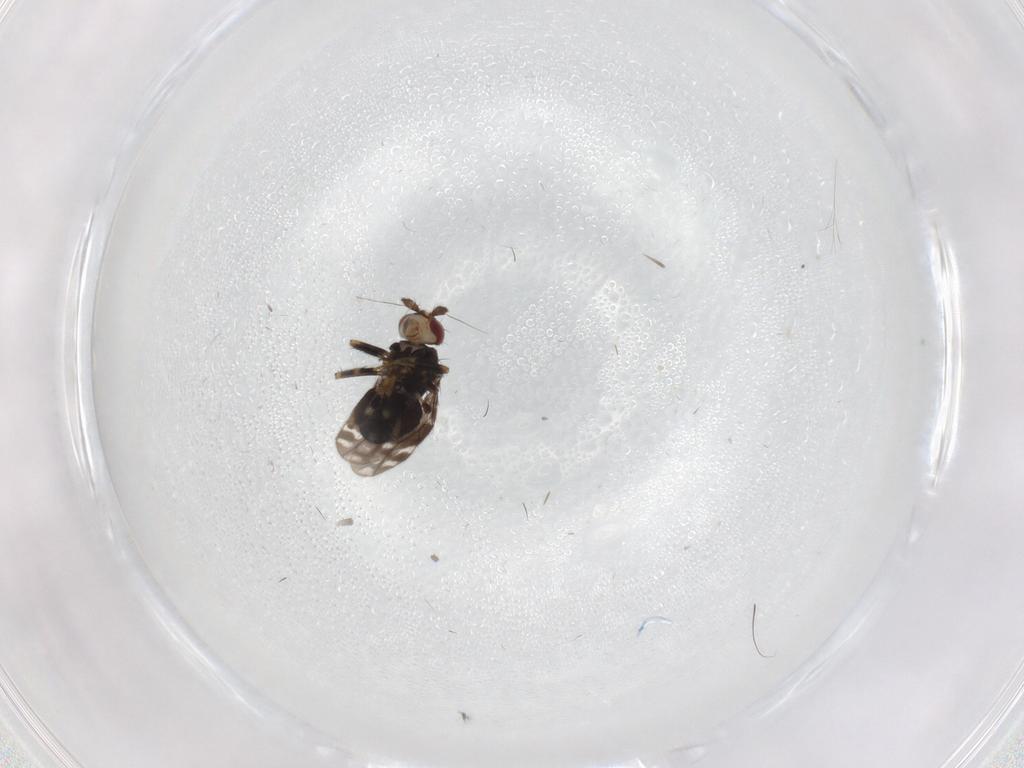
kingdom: Animalia
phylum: Arthropoda
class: Insecta
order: Diptera
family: Sphaeroceridae
